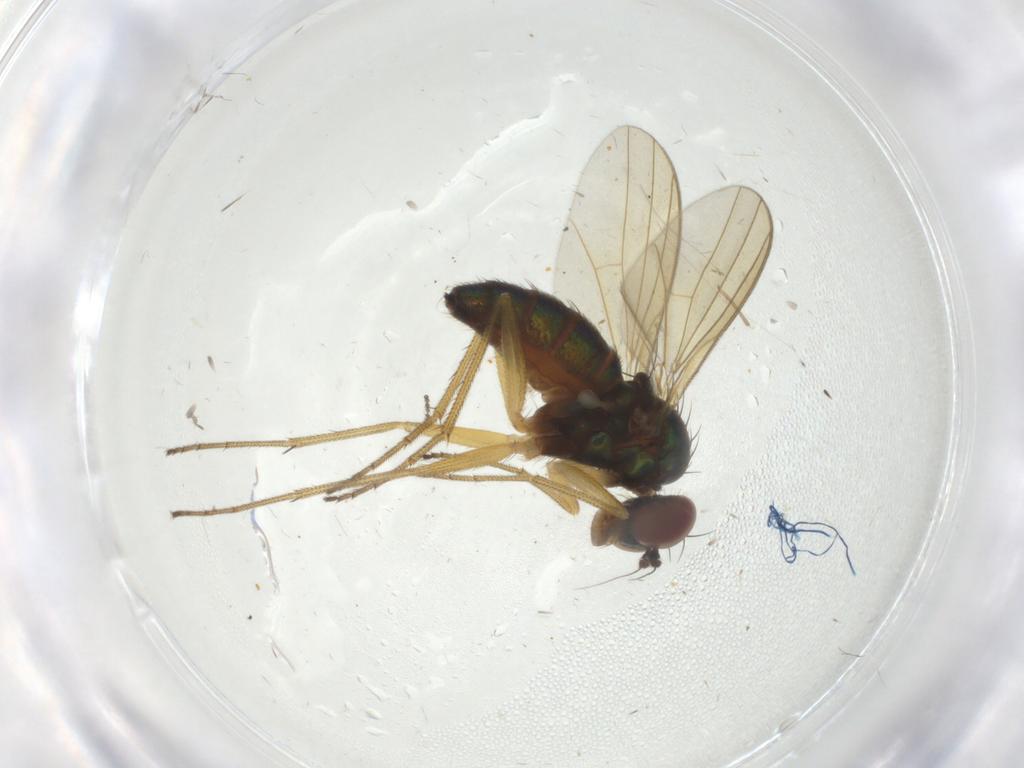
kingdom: Animalia
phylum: Arthropoda
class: Insecta
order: Diptera
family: Dolichopodidae
